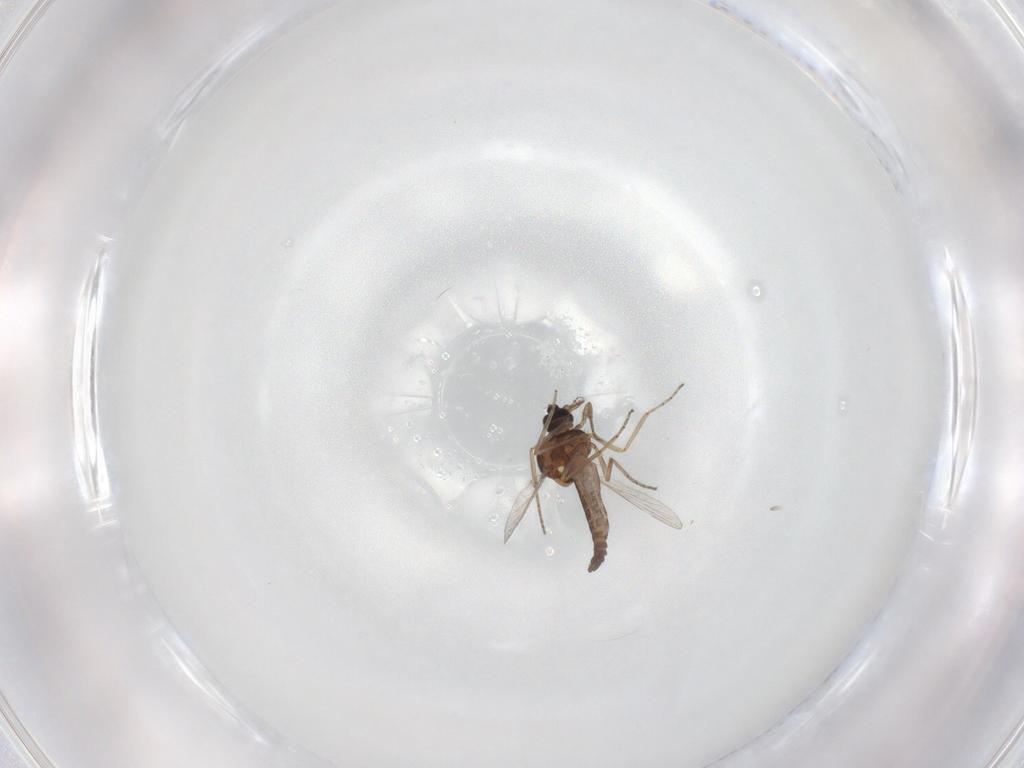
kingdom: Animalia
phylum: Arthropoda
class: Insecta
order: Diptera
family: Ceratopogonidae
